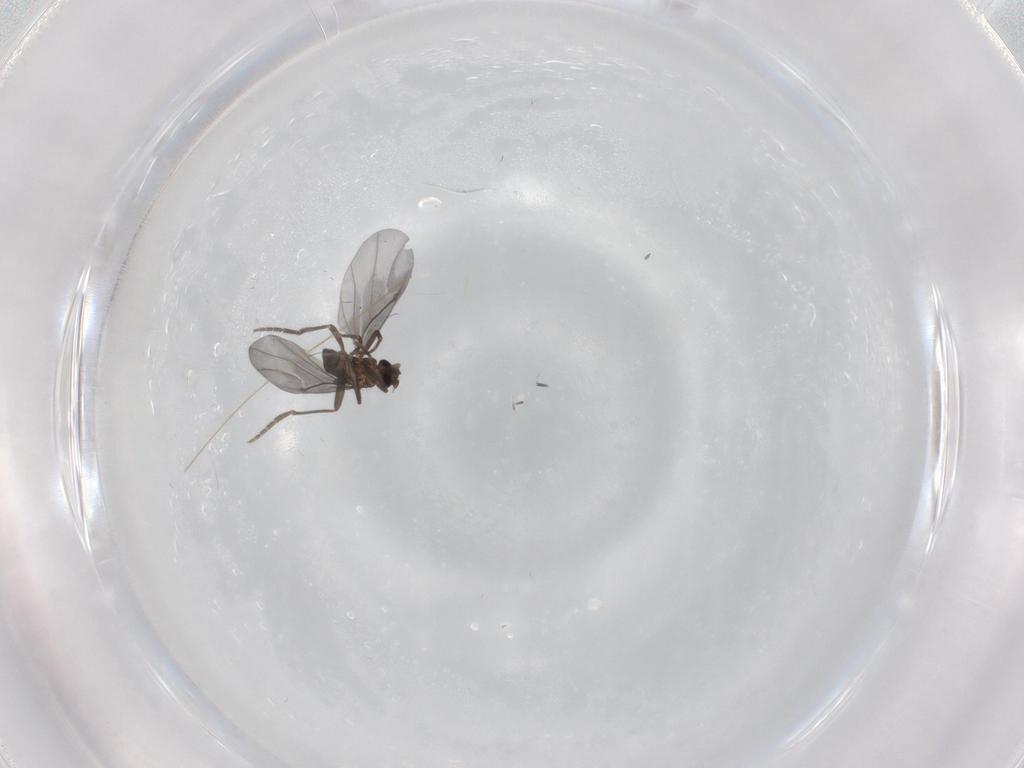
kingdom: Animalia
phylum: Arthropoda
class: Insecta
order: Diptera
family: Phoridae
